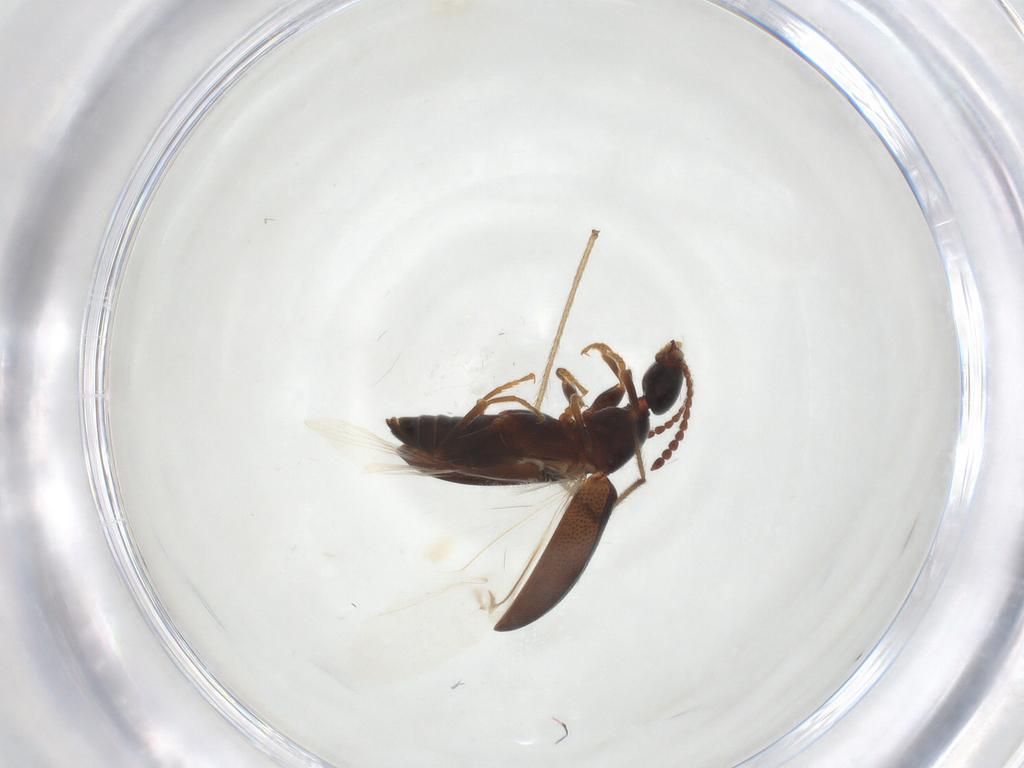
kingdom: Animalia
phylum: Arthropoda
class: Insecta
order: Coleoptera
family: Anthicidae
